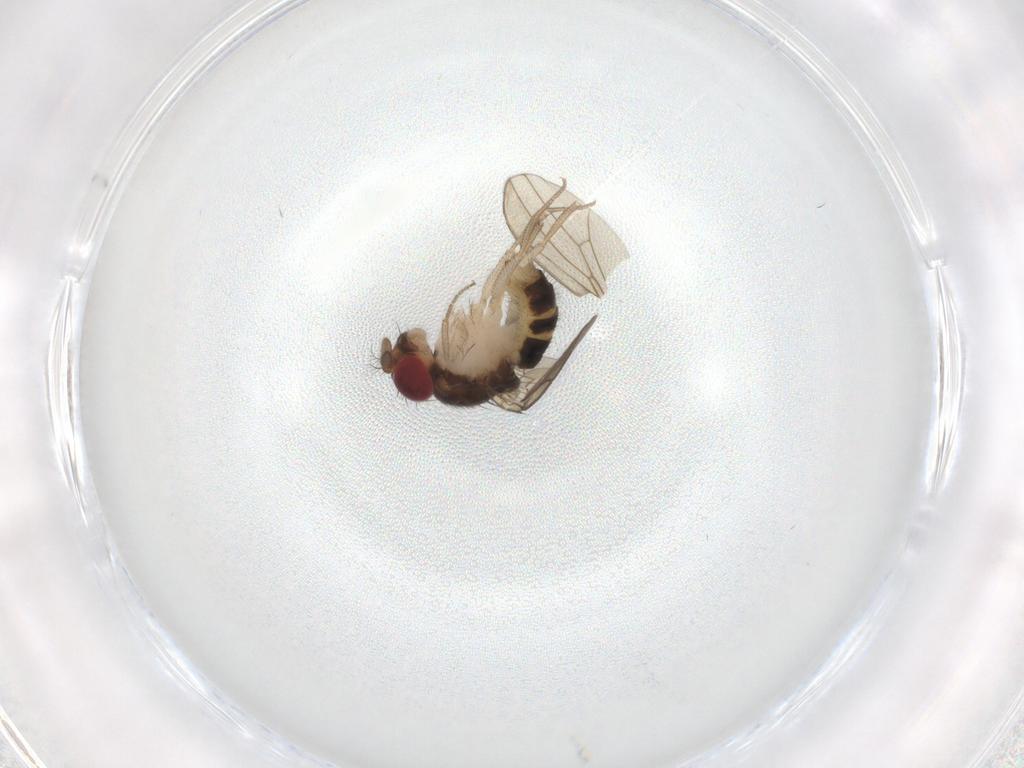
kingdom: Animalia
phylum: Arthropoda
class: Insecta
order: Diptera
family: Drosophilidae
